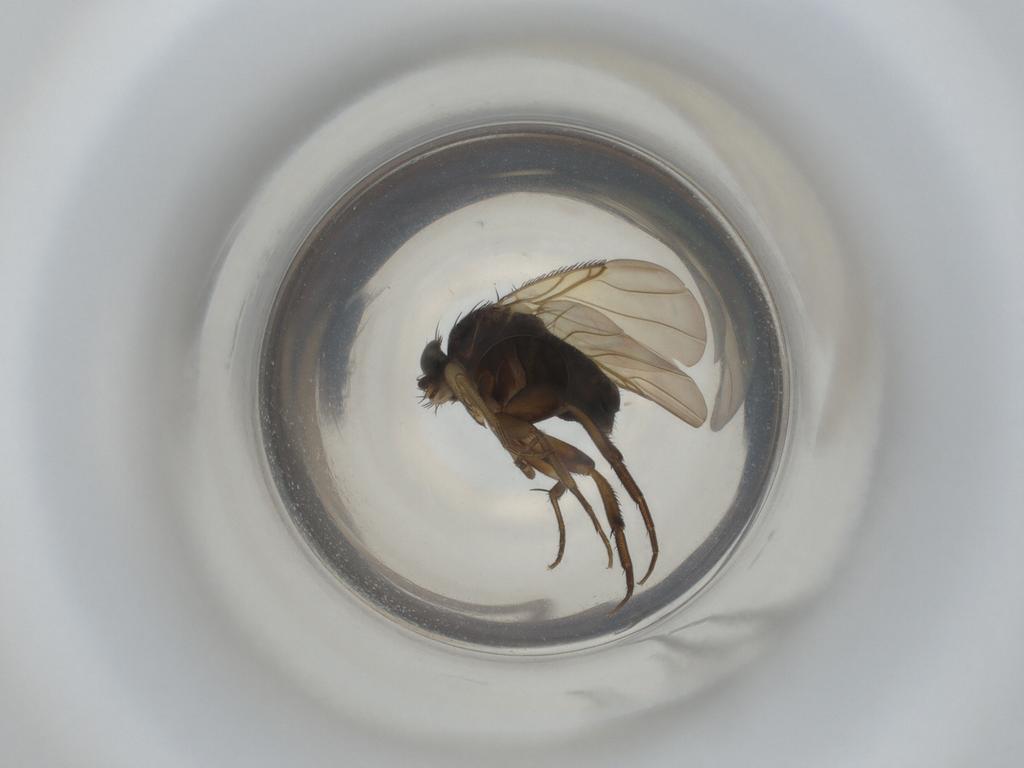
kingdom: Animalia
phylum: Arthropoda
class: Insecta
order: Diptera
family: Phoridae
